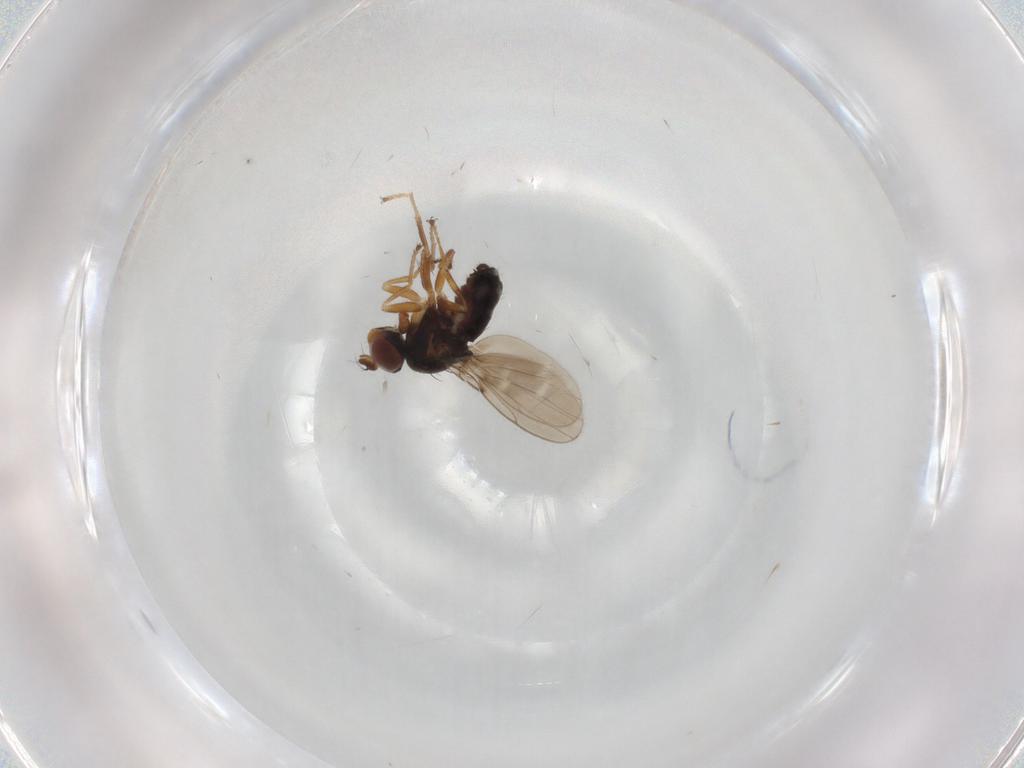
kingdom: Animalia
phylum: Arthropoda
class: Insecta
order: Diptera
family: Ephydridae
